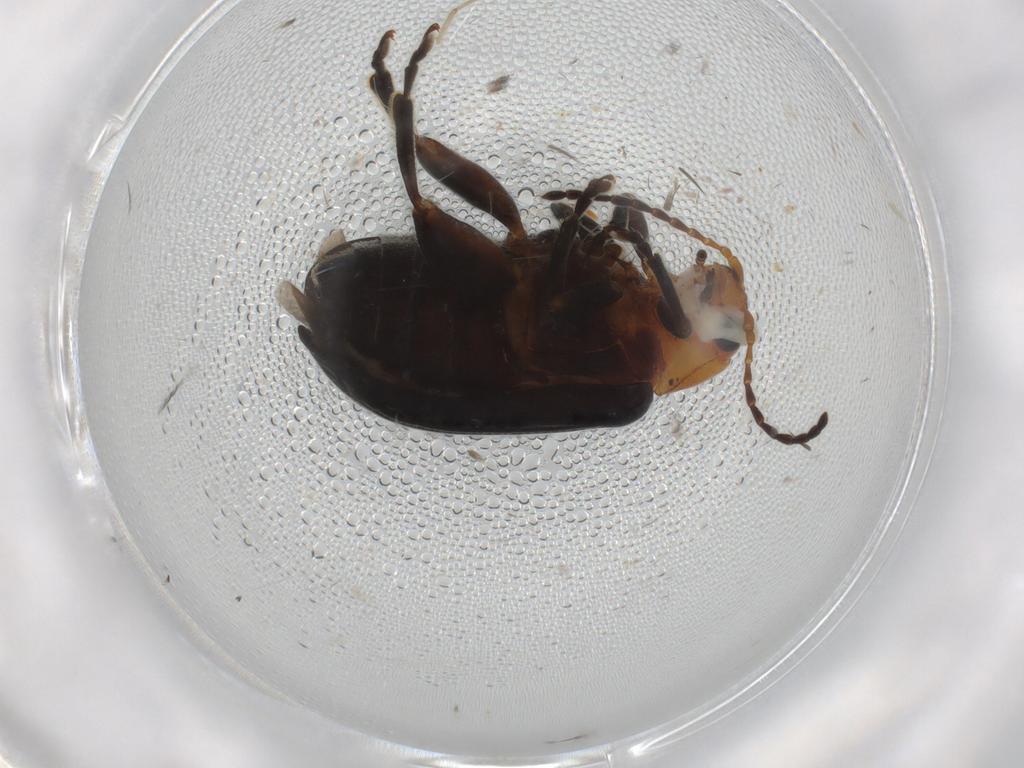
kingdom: Animalia
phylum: Arthropoda
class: Insecta
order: Coleoptera
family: Chrysomelidae
